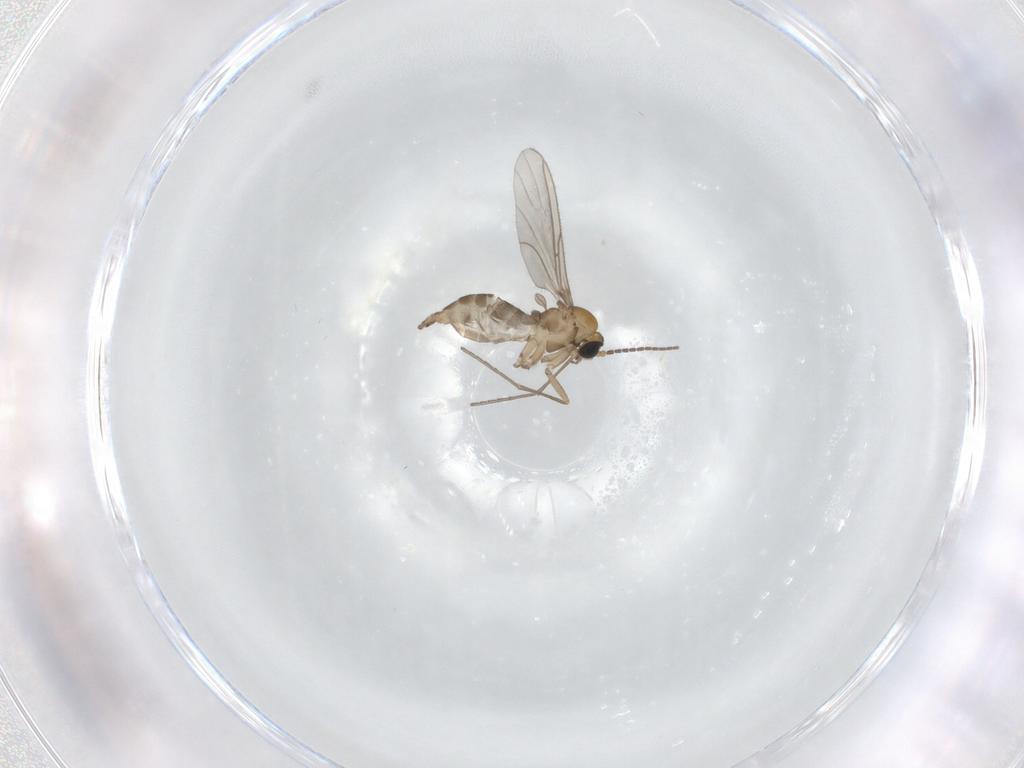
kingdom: Animalia
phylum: Arthropoda
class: Insecta
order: Diptera
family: Sciaridae
